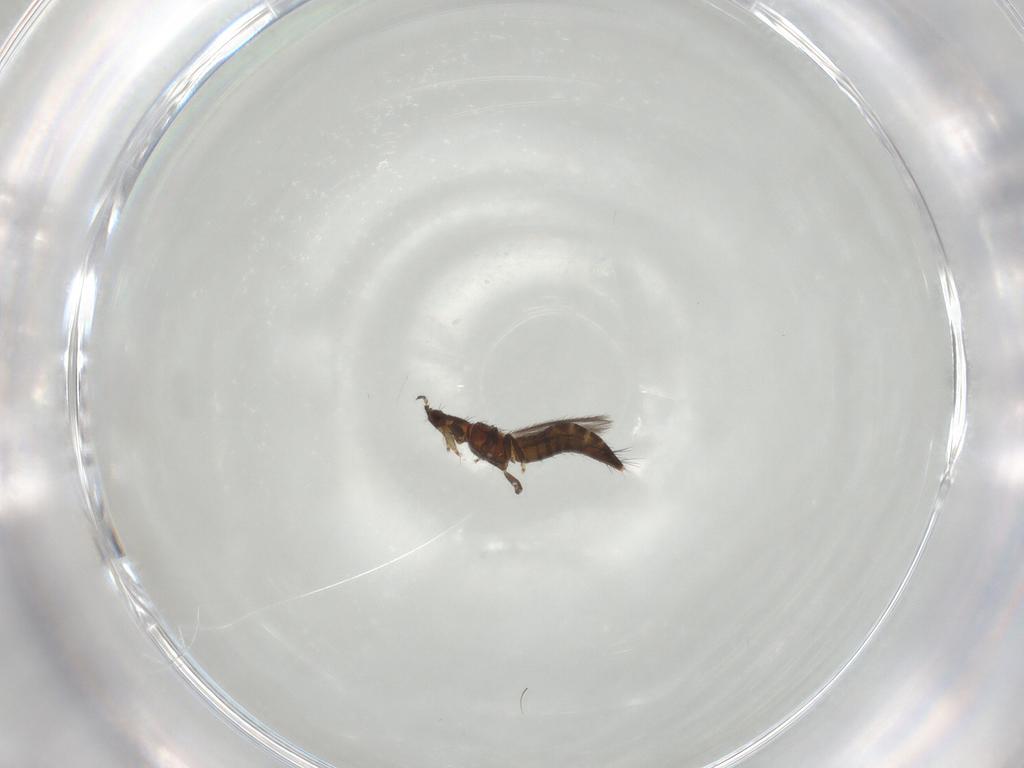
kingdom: Animalia
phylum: Arthropoda
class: Insecta
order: Thysanoptera
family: Thripidae
